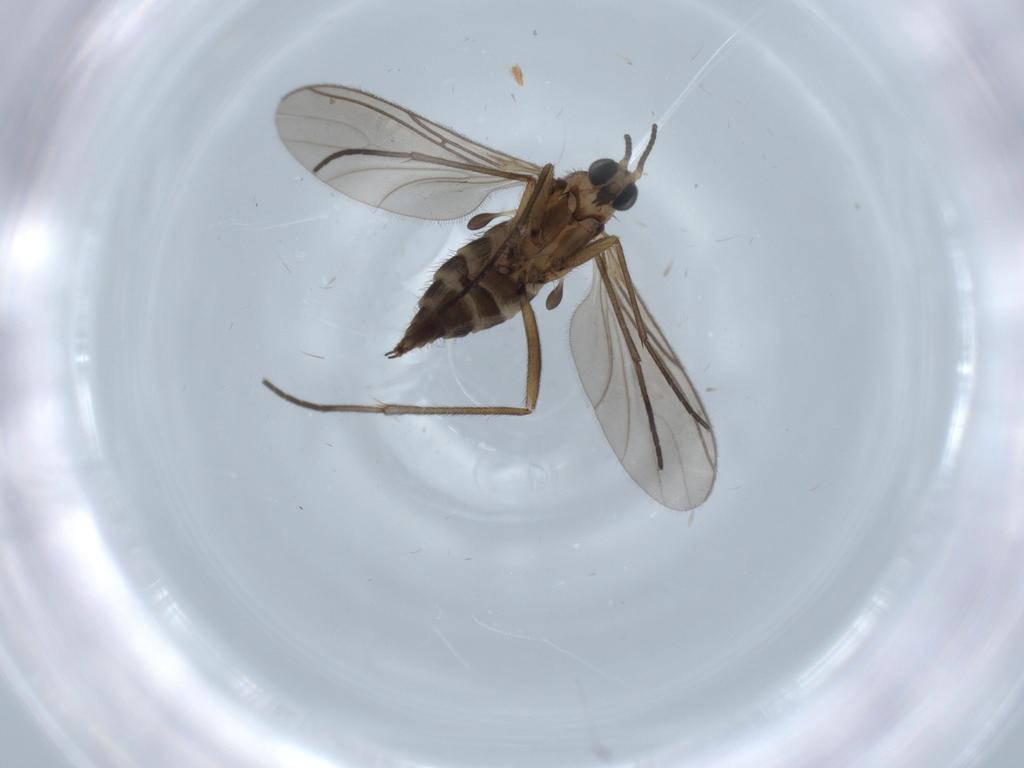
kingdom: Animalia
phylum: Arthropoda
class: Insecta
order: Diptera
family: Sciaridae
